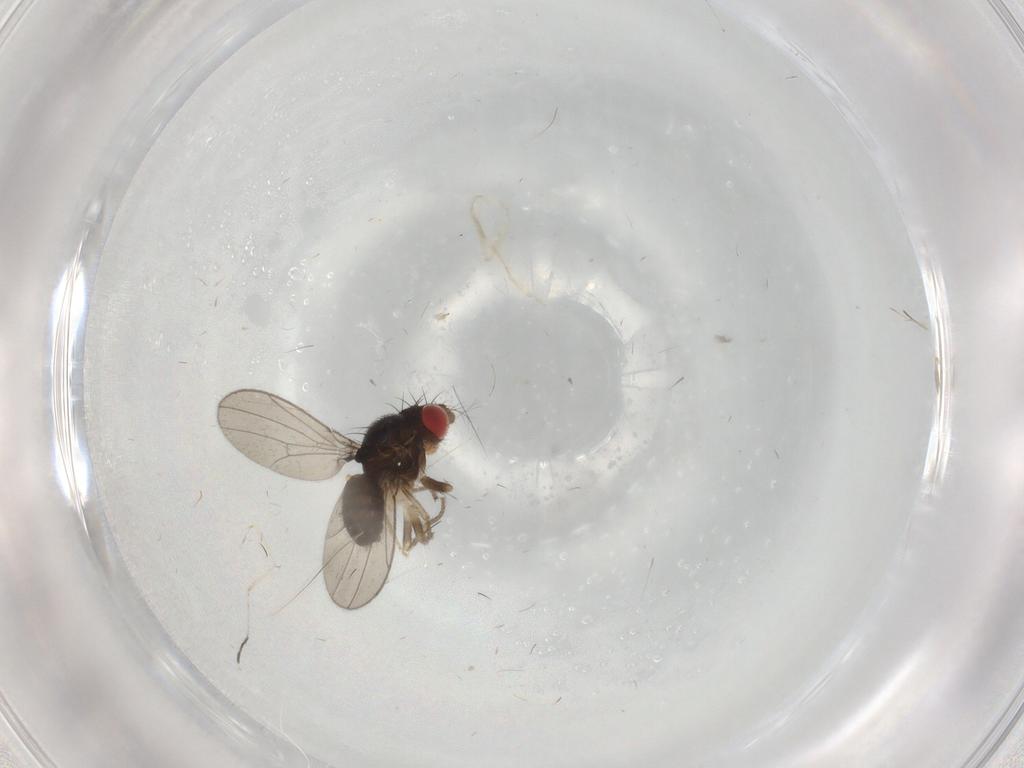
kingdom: Animalia
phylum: Arthropoda
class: Insecta
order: Diptera
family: Drosophilidae
